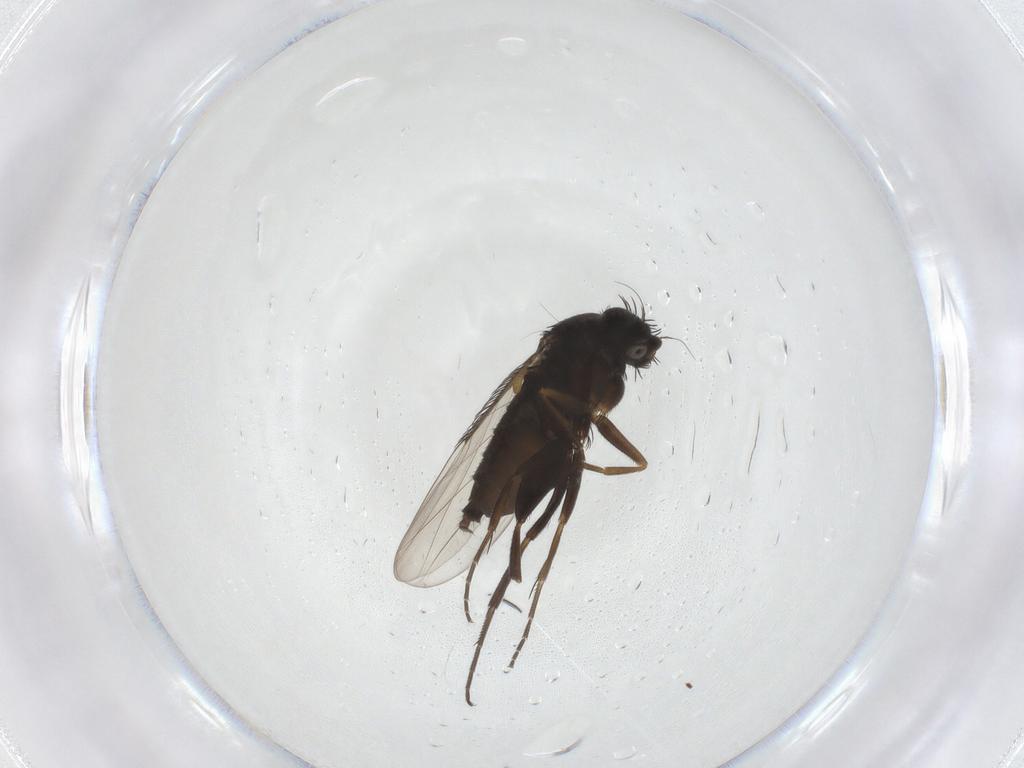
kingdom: Animalia
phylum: Arthropoda
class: Insecta
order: Diptera
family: Phoridae
